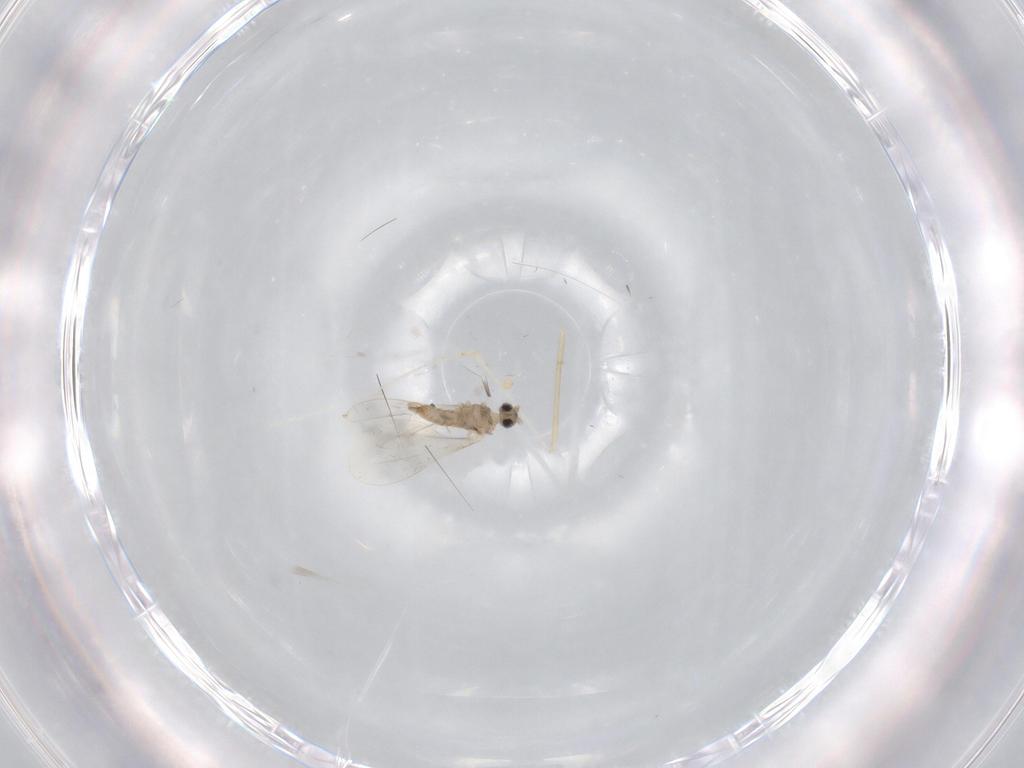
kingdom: Animalia
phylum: Arthropoda
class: Insecta
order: Diptera
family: Cecidomyiidae
